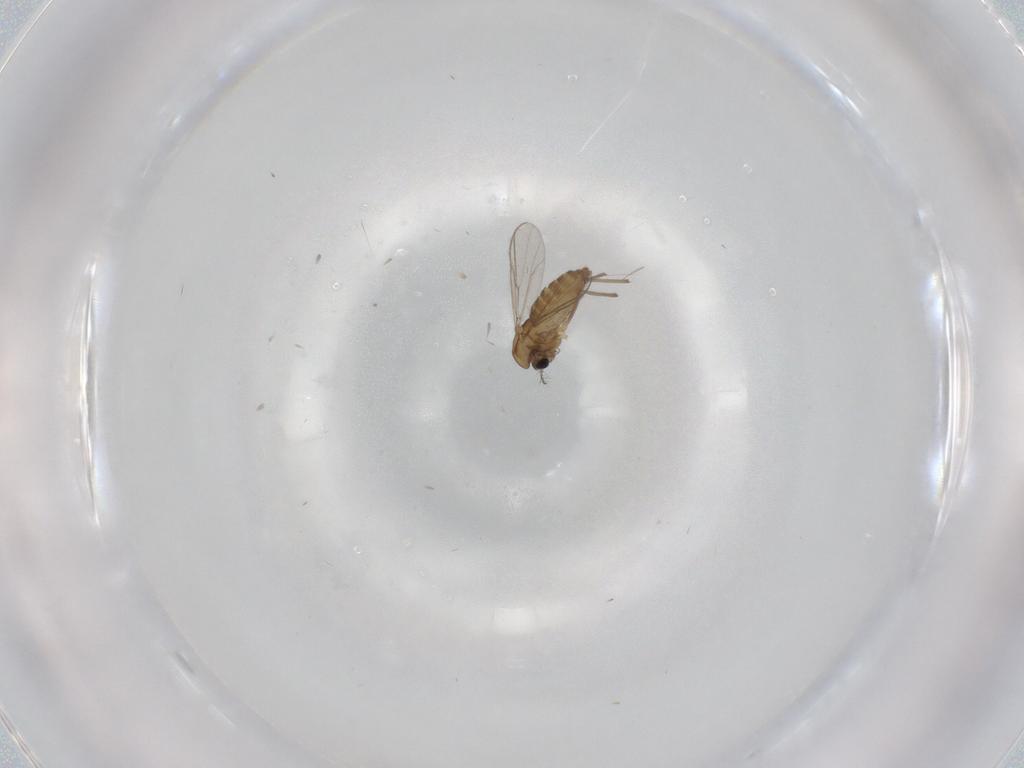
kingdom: Animalia
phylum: Arthropoda
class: Insecta
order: Diptera
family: Chironomidae
